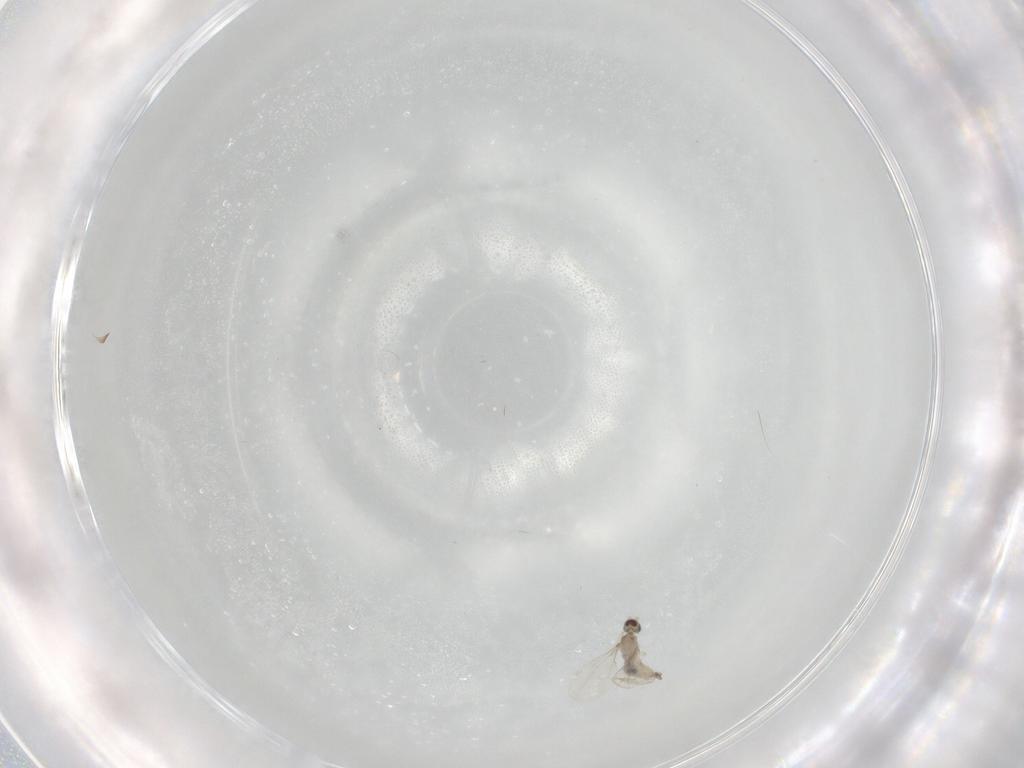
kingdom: Animalia
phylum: Arthropoda
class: Insecta
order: Diptera
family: Cecidomyiidae
